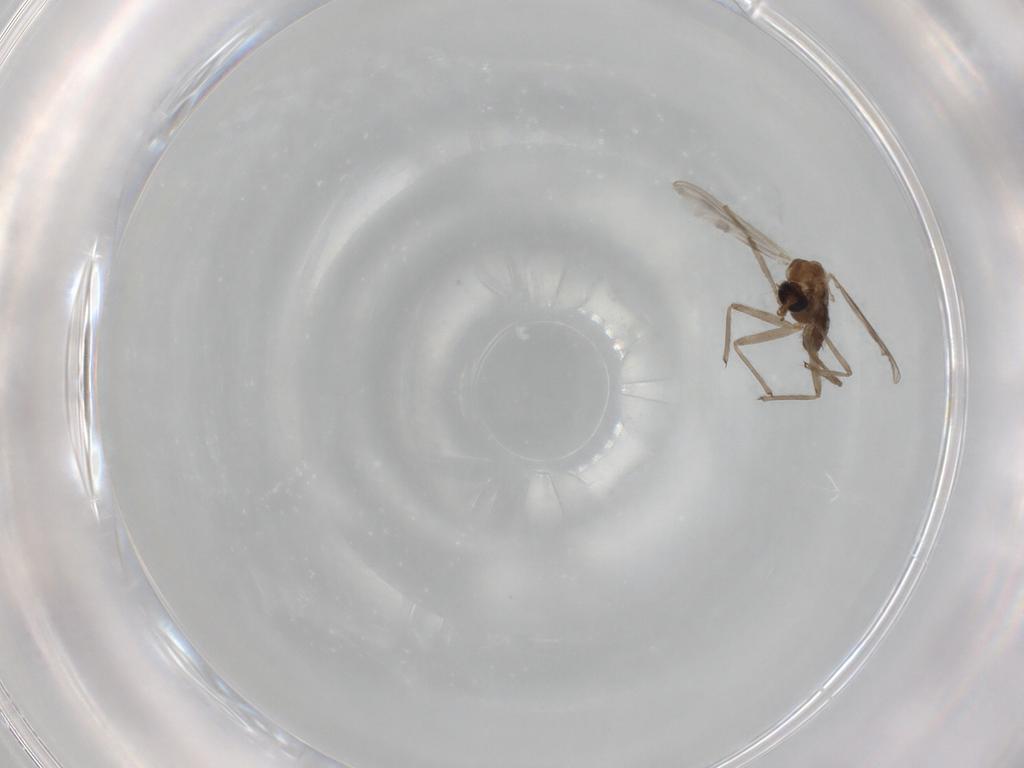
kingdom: Animalia
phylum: Arthropoda
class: Insecta
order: Diptera
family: Chironomidae
